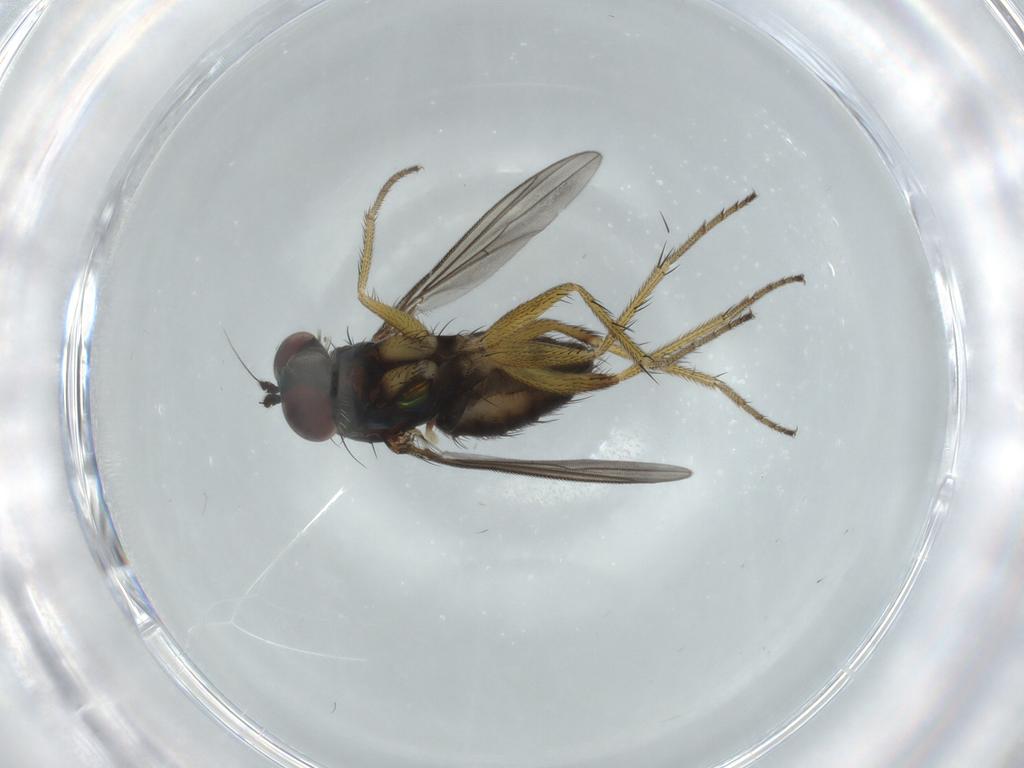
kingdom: Animalia
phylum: Arthropoda
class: Insecta
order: Diptera
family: Dolichopodidae
